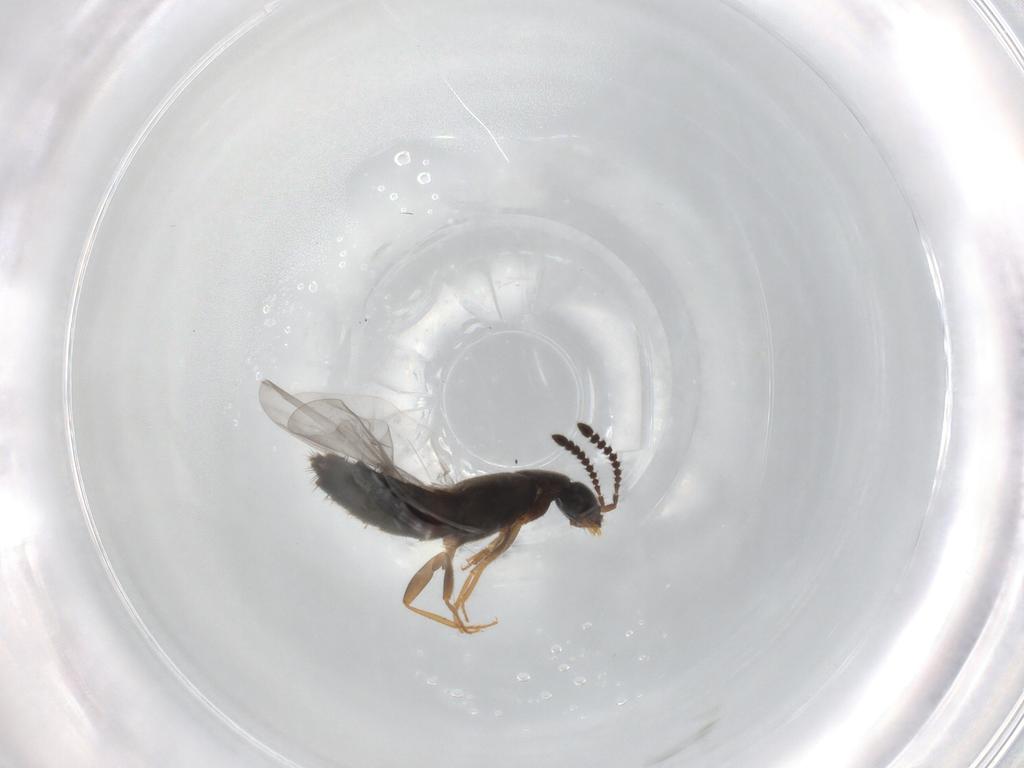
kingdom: Animalia
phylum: Arthropoda
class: Insecta
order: Coleoptera
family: Staphylinidae
